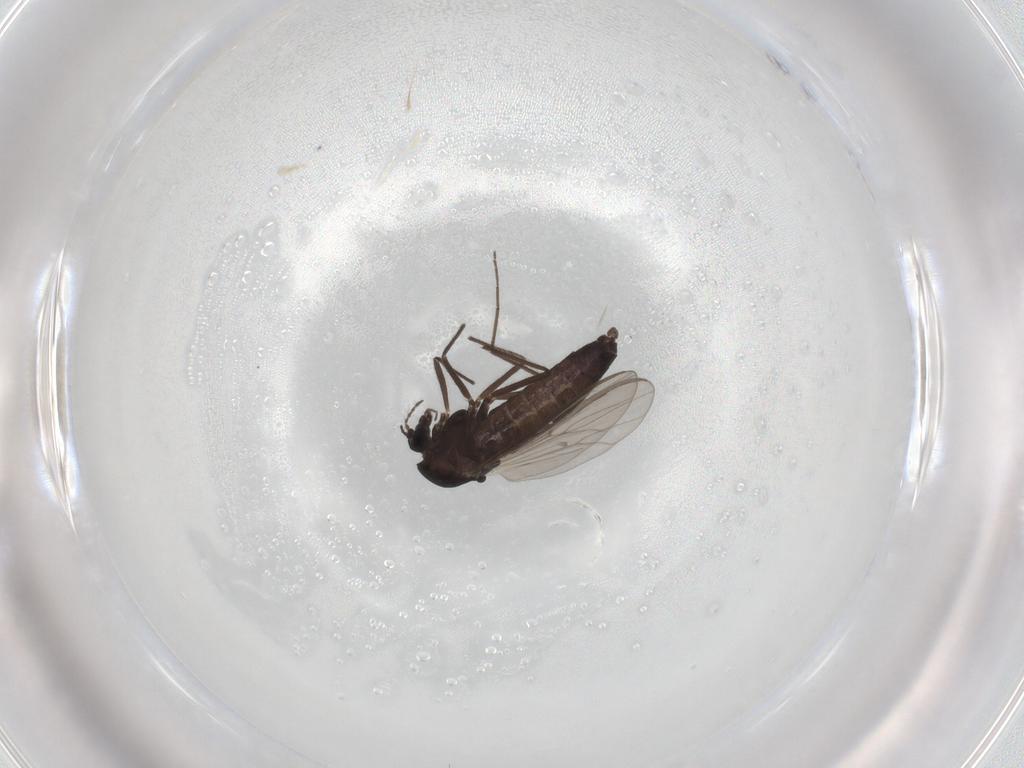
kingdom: Animalia
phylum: Arthropoda
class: Insecta
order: Diptera
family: Chironomidae
